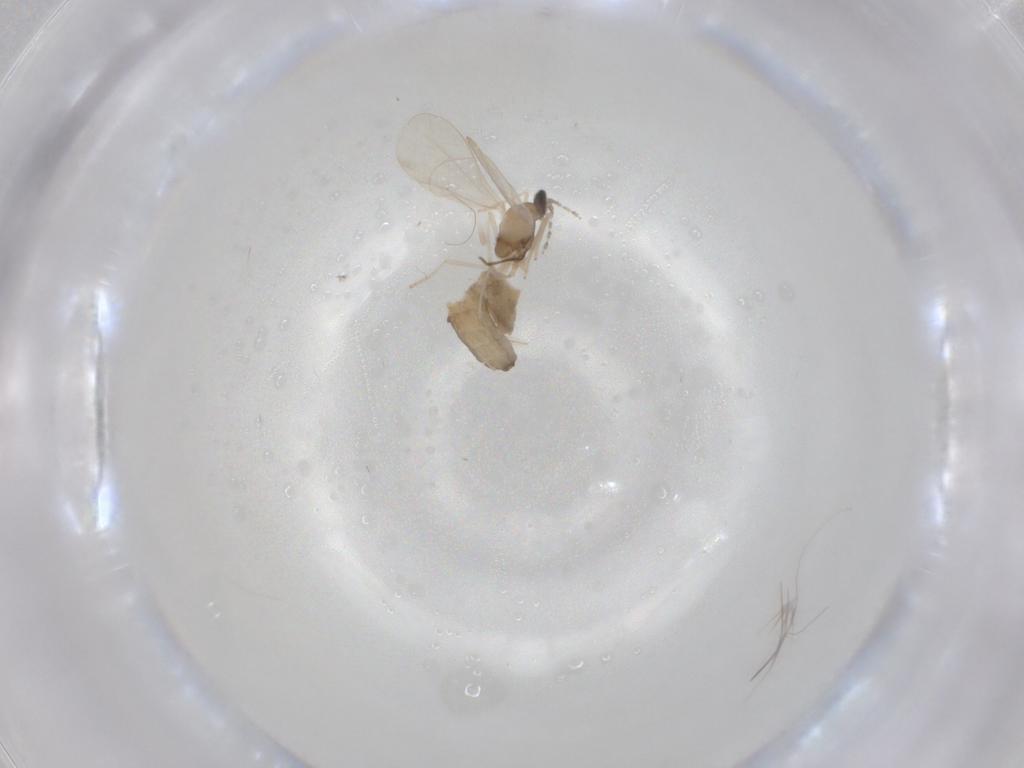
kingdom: Animalia
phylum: Arthropoda
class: Insecta
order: Diptera
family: Cecidomyiidae
